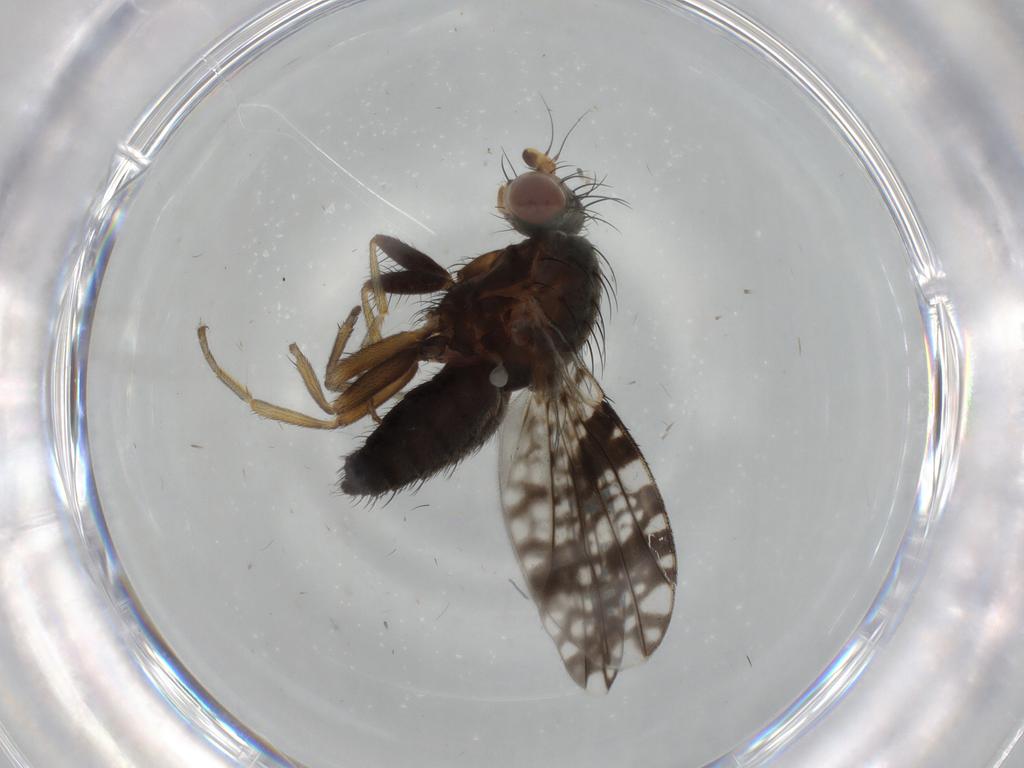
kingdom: Animalia
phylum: Arthropoda
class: Insecta
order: Diptera
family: Tephritidae
